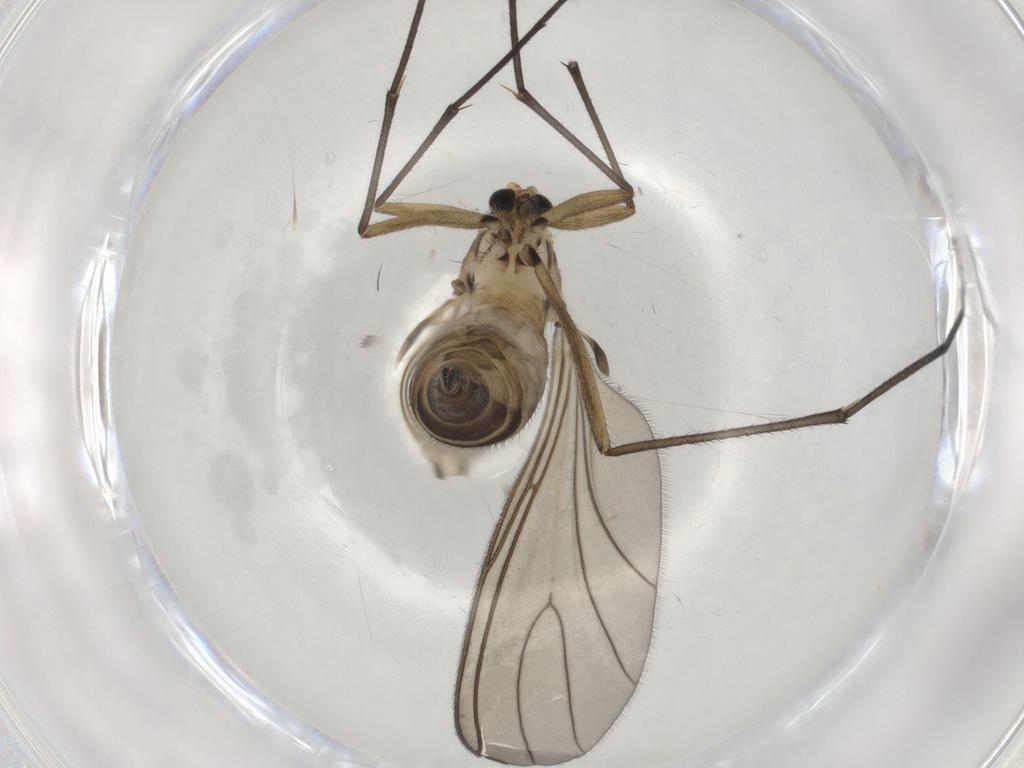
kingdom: Animalia
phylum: Arthropoda
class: Insecta
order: Diptera
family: Sciaridae
